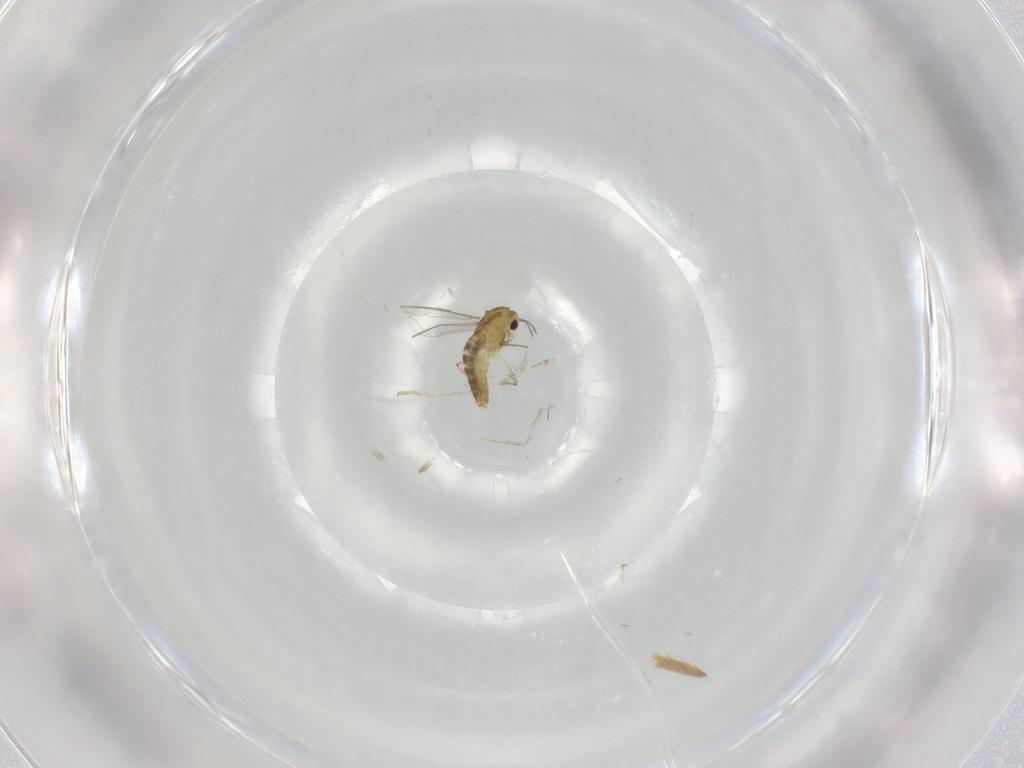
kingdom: Animalia
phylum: Arthropoda
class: Insecta
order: Diptera
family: Chironomidae
